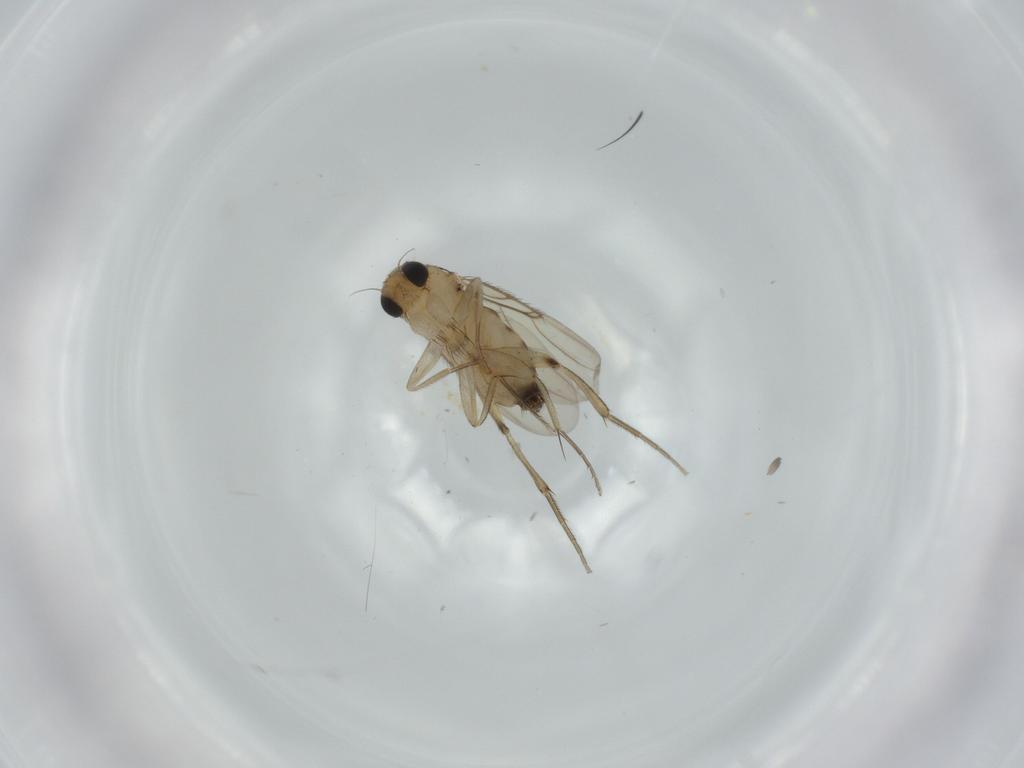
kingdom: Animalia
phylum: Arthropoda
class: Insecta
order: Diptera
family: Phoridae
